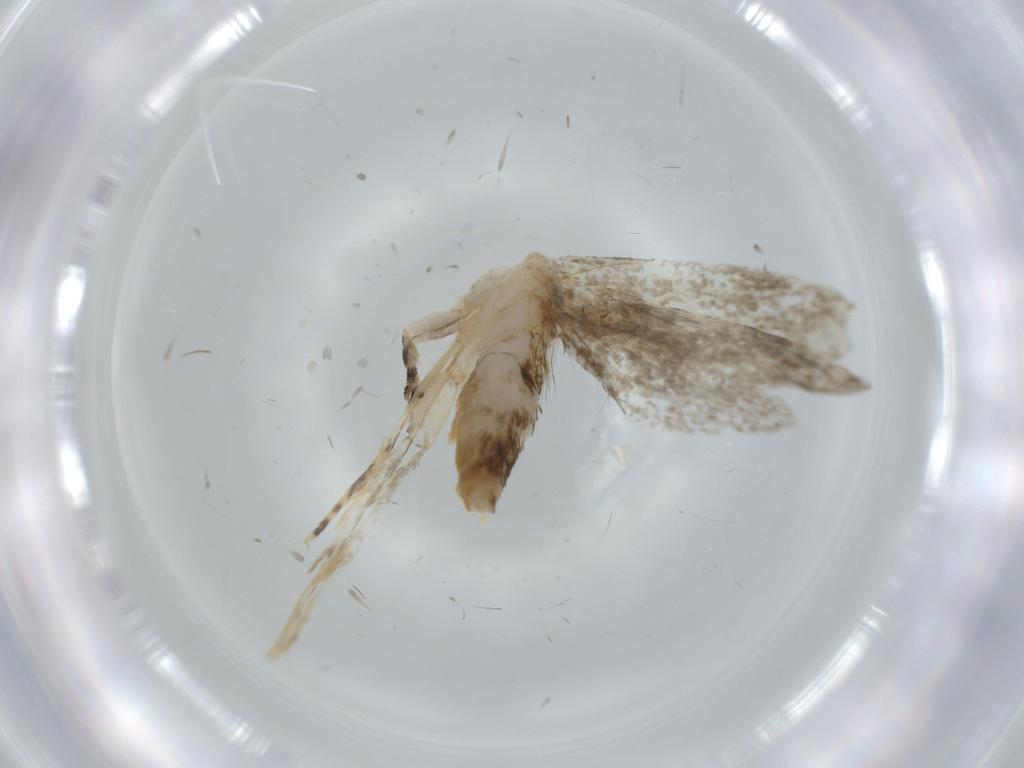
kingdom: Animalia
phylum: Arthropoda
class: Insecta
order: Lepidoptera
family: Tineidae
